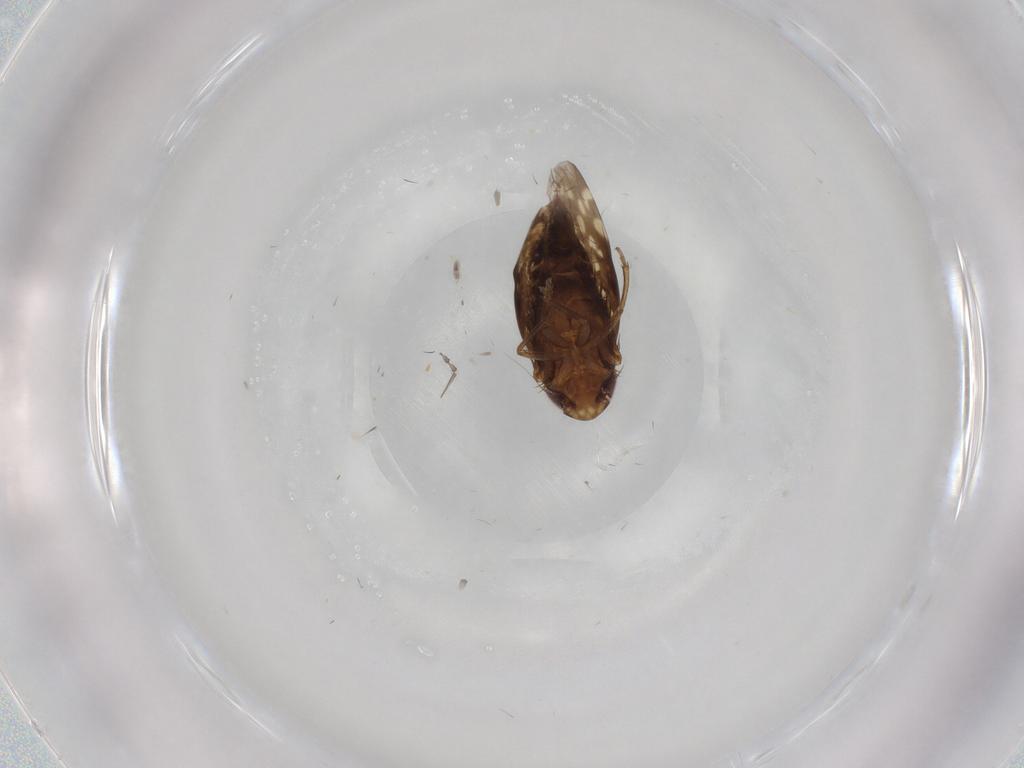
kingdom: Animalia
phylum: Arthropoda
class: Insecta
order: Hemiptera
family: Cicadellidae
